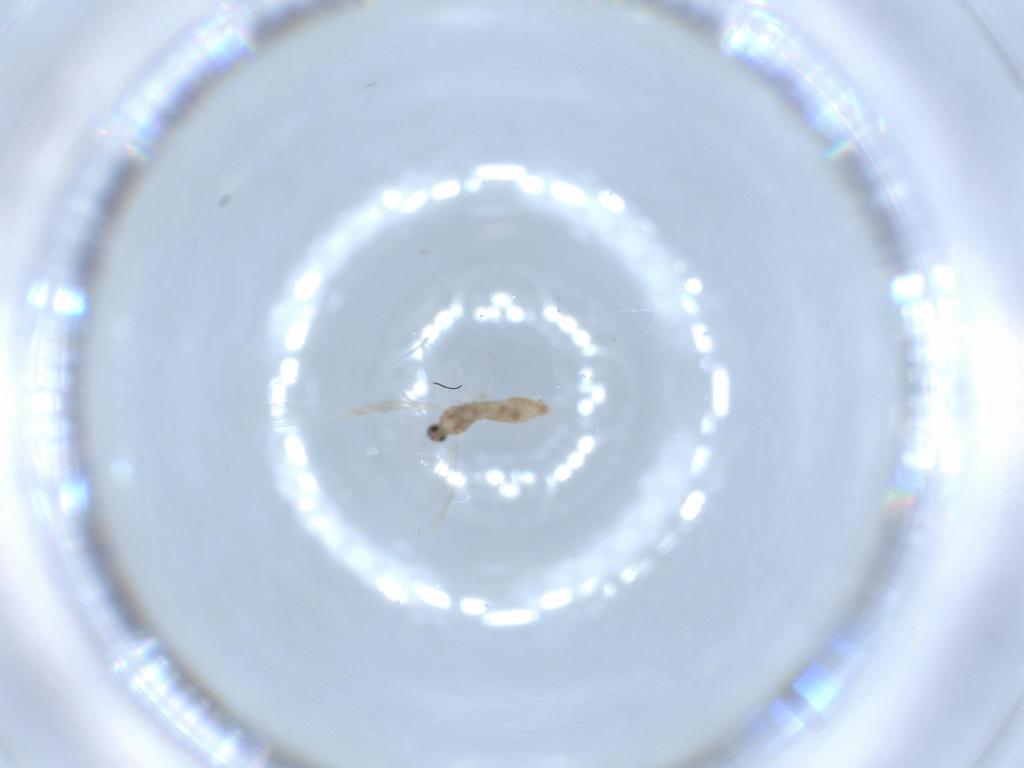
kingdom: Animalia
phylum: Arthropoda
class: Insecta
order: Diptera
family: Cecidomyiidae
